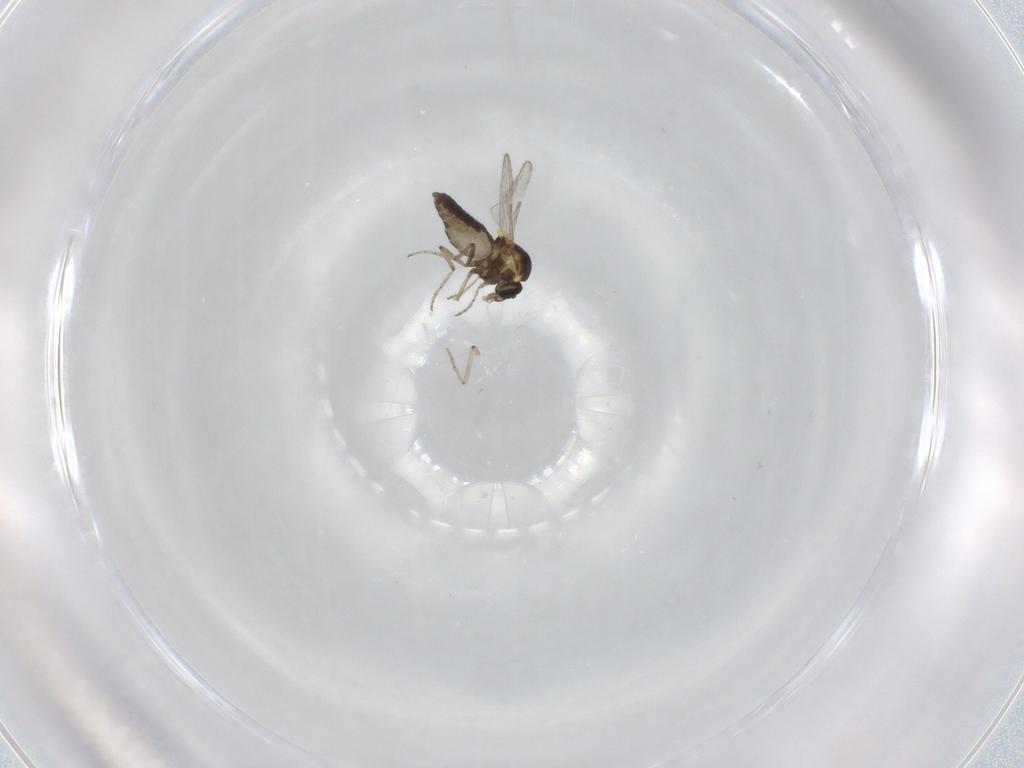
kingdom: Animalia
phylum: Arthropoda
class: Insecta
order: Diptera
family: Ceratopogonidae
